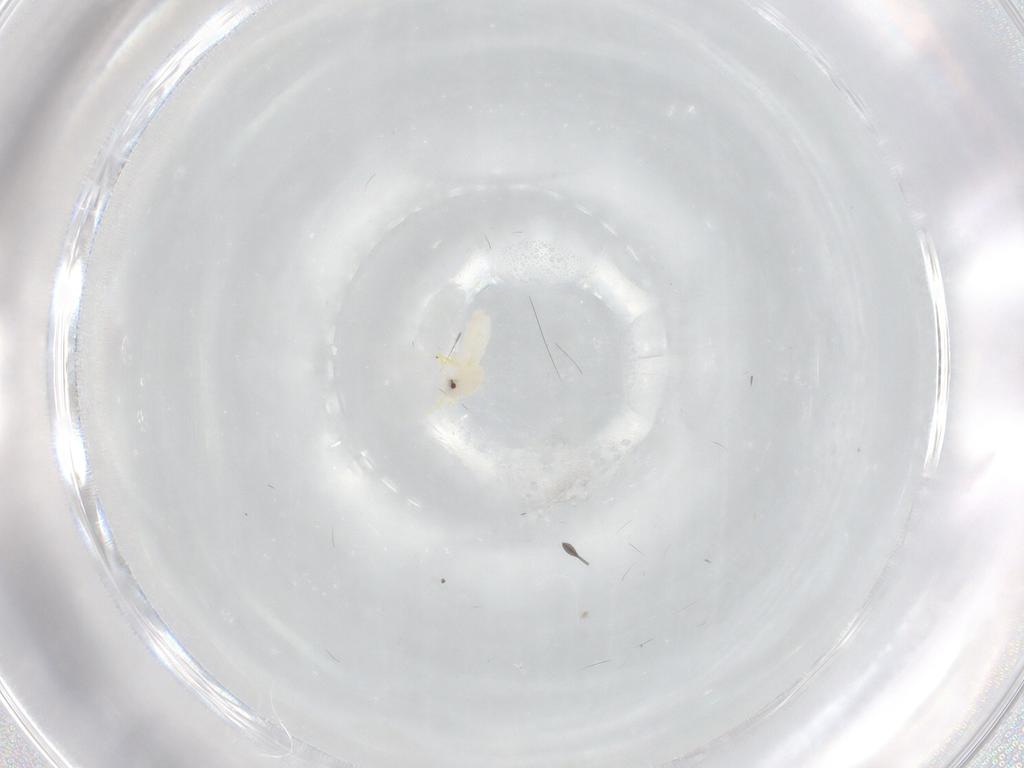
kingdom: Animalia
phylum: Arthropoda
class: Insecta
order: Hemiptera
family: Aleyrodidae
